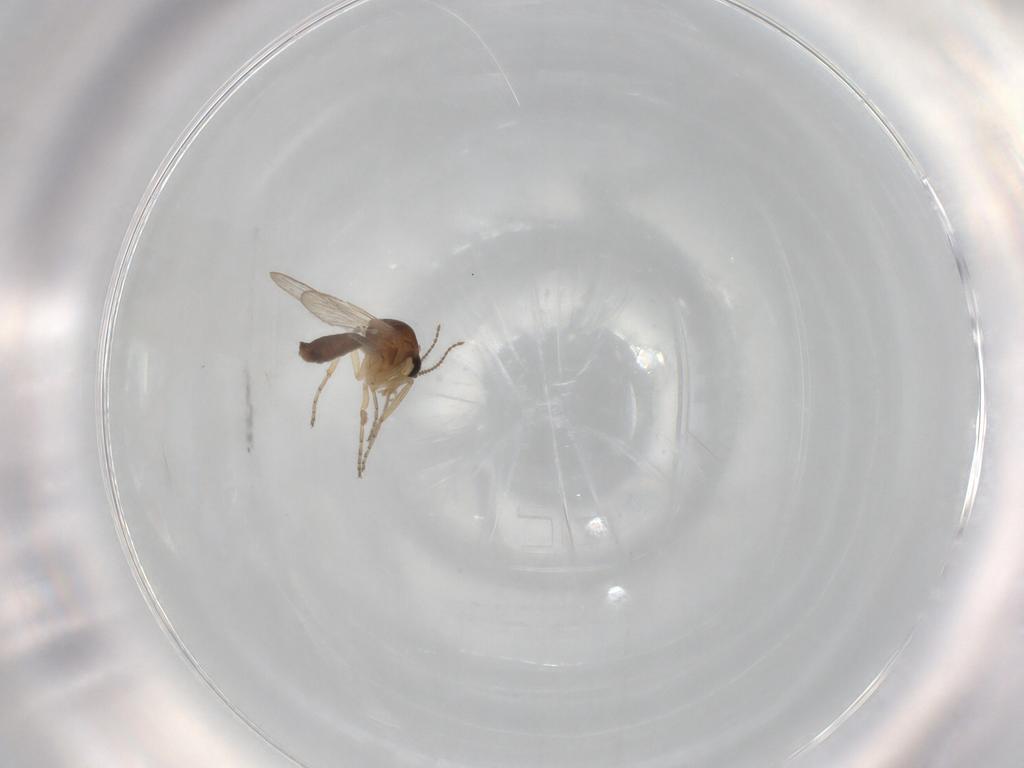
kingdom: Animalia
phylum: Arthropoda
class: Insecta
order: Diptera
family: Ceratopogonidae
